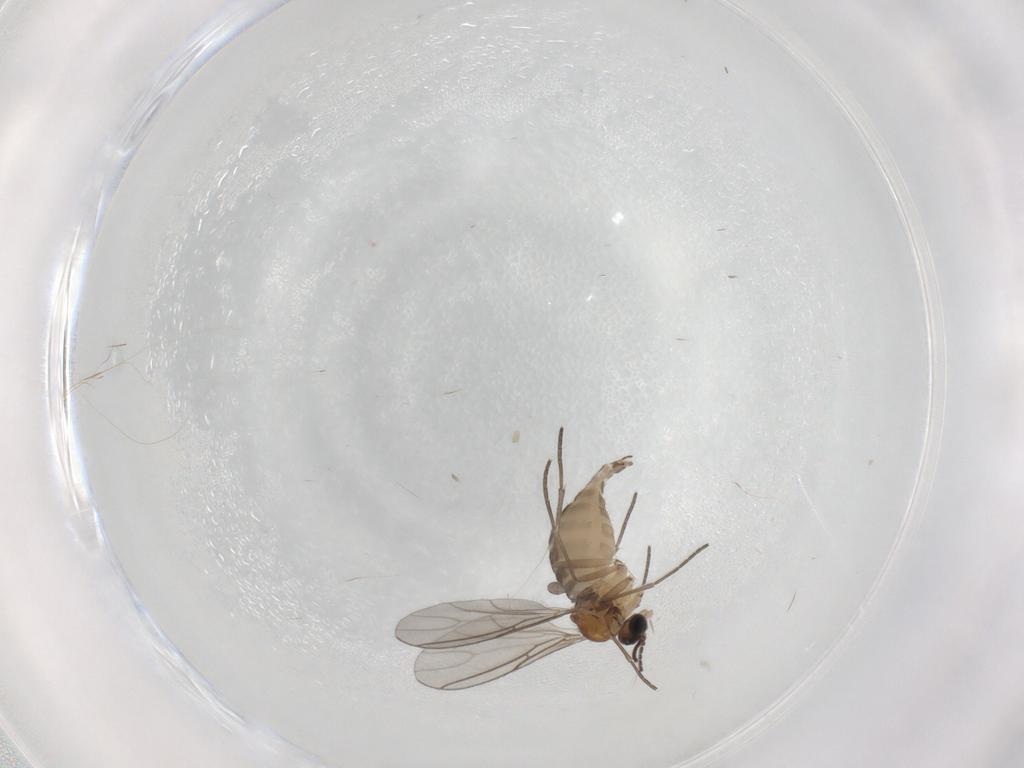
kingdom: Animalia
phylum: Arthropoda
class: Insecta
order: Diptera
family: Sciaridae
